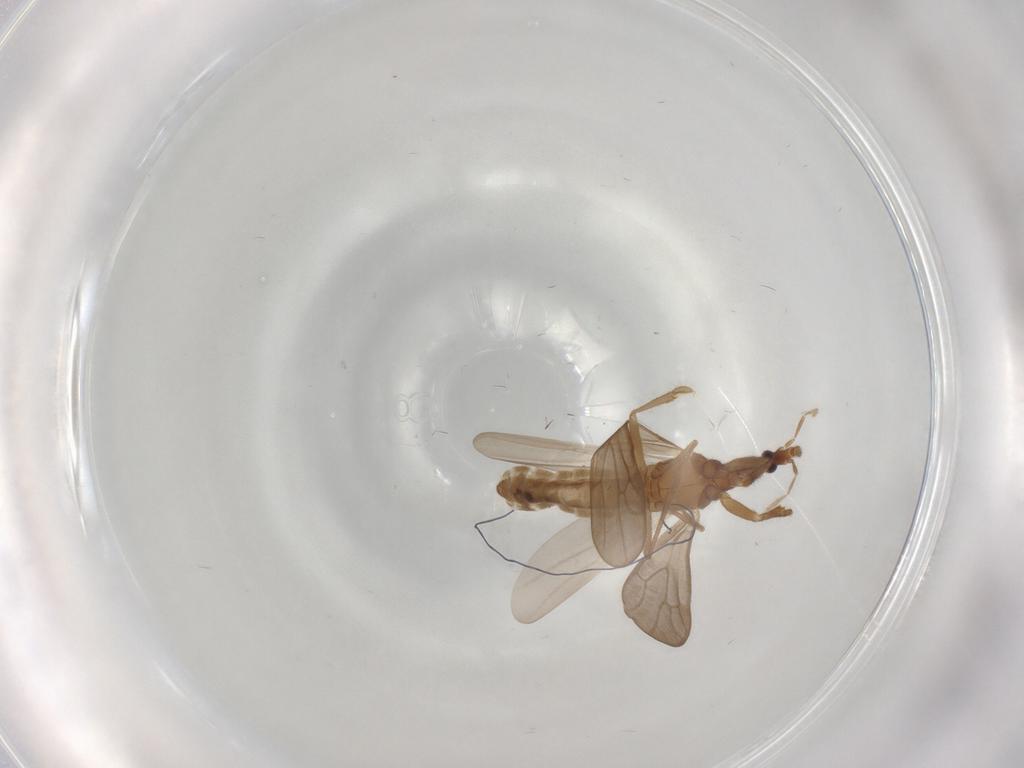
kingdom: Animalia
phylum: Arthropoda
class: Insecta
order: Hemiptera
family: Enicocephalidae
